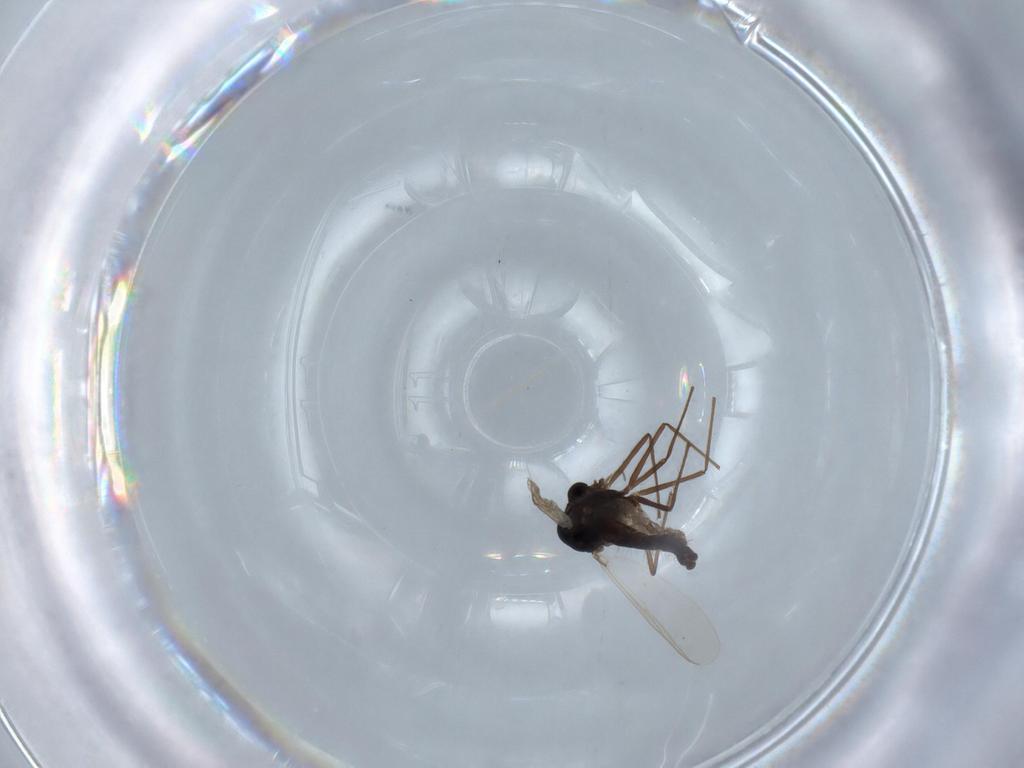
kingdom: Animalia
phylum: Arthropoda
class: Insecta
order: Diptera
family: Chironomidae
